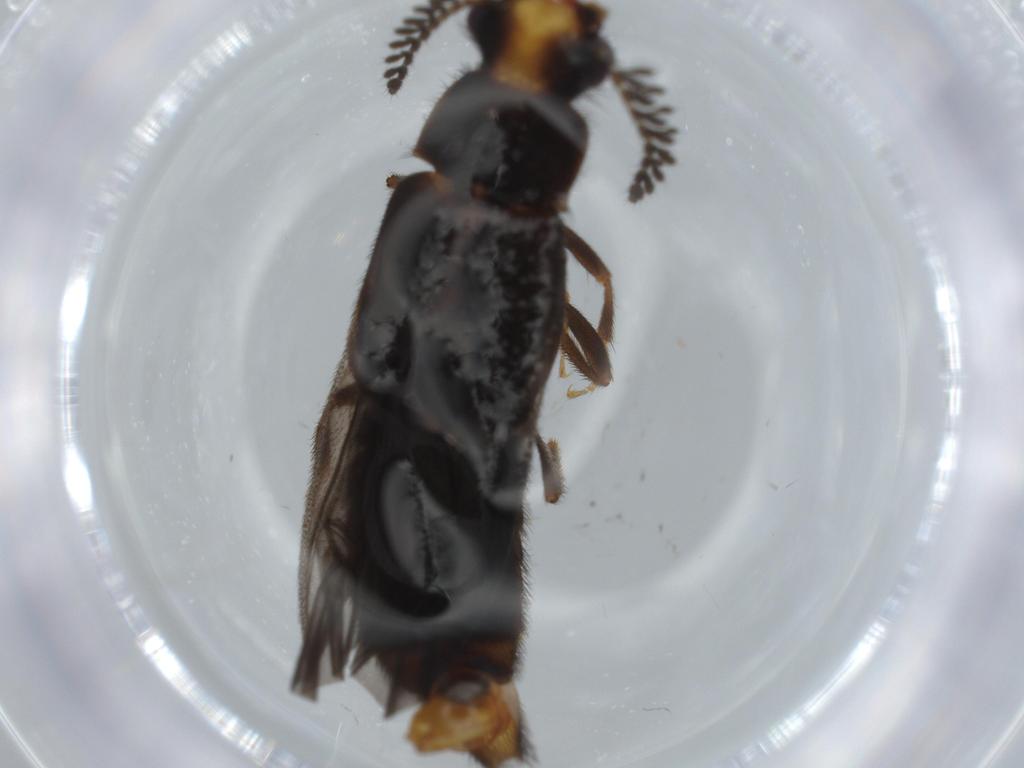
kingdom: Animalia
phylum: Arthropoda
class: Insecta
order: Coleoptera
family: Phengodidae
